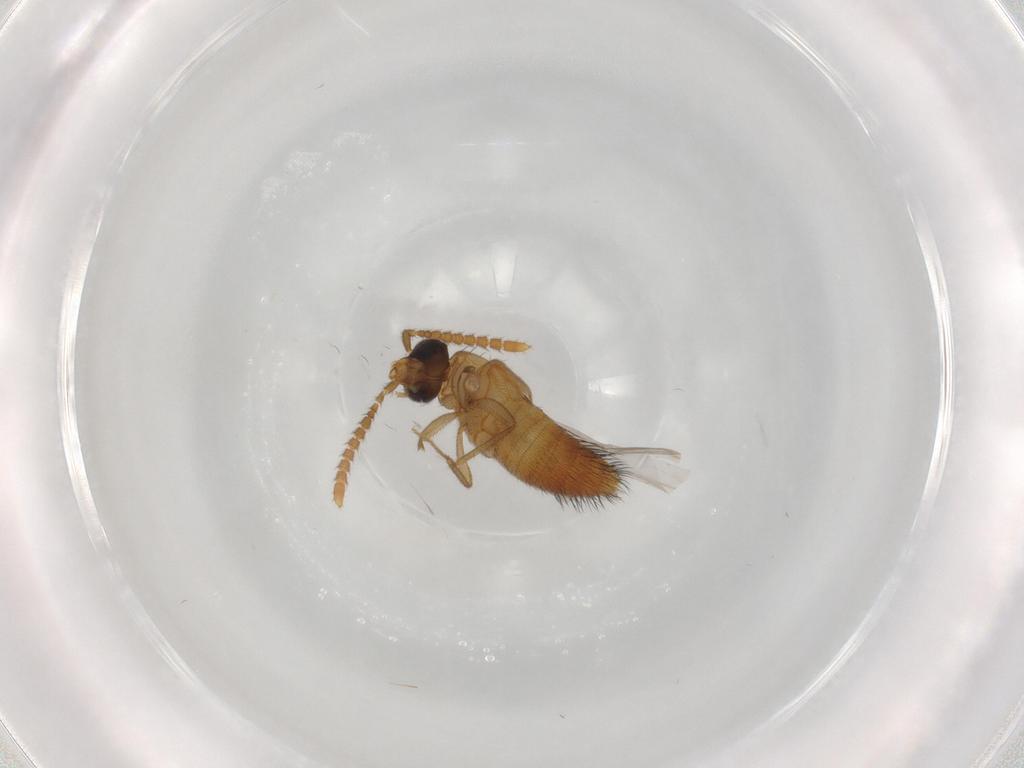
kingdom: Animalia
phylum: Arthropoda
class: Insecta
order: Coleoptera
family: Staphylinidae
